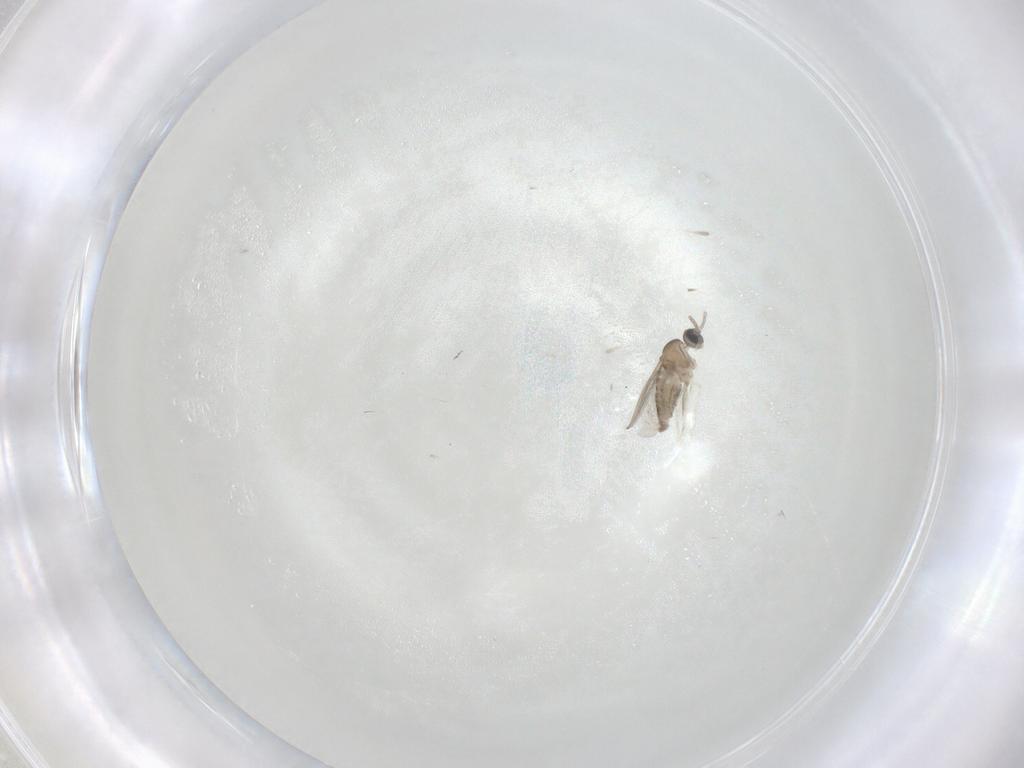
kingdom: Animalia
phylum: Arthropoda
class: Insecta
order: Diptera
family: Cecidomyiidae
